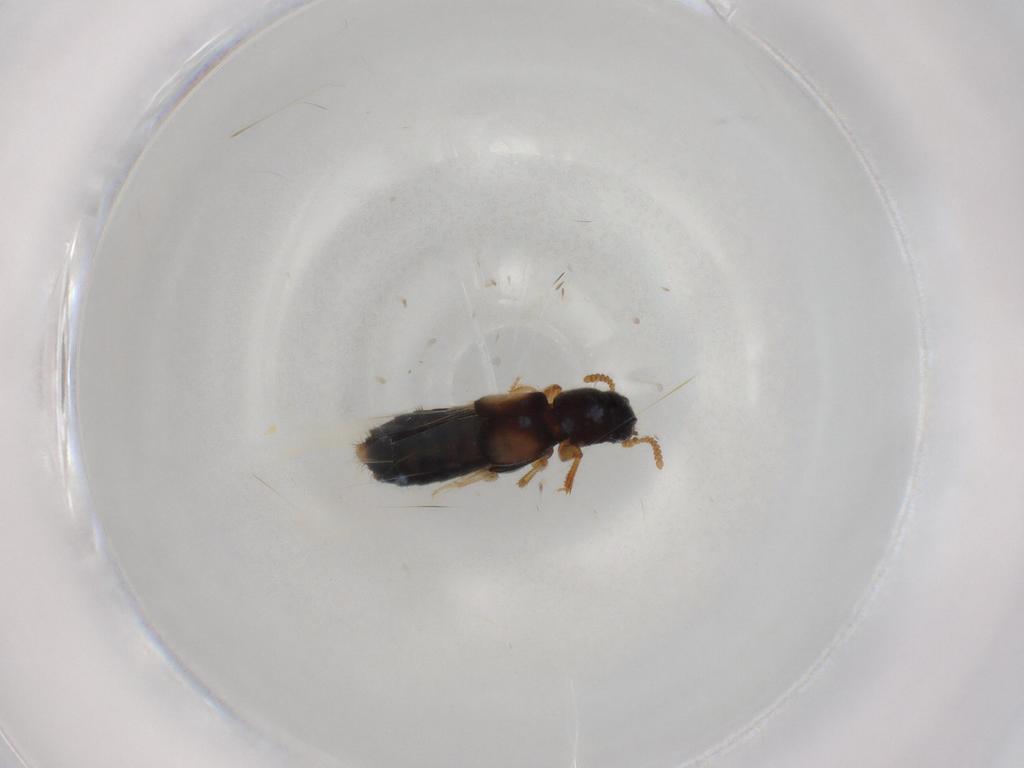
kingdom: Animalia
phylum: Arthropoda
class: Insecta
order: Coleoptera
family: Staphylinidae
